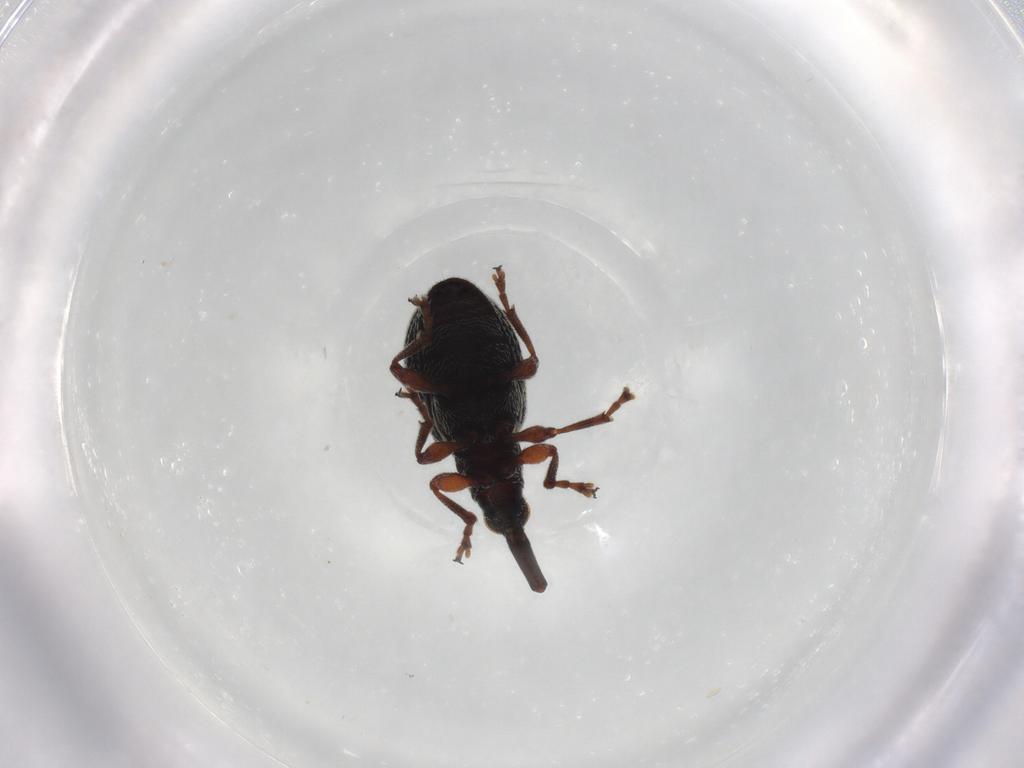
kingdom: Animalia
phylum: Arthropoda
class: Insecta
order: Coleoptera
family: Brentidae
